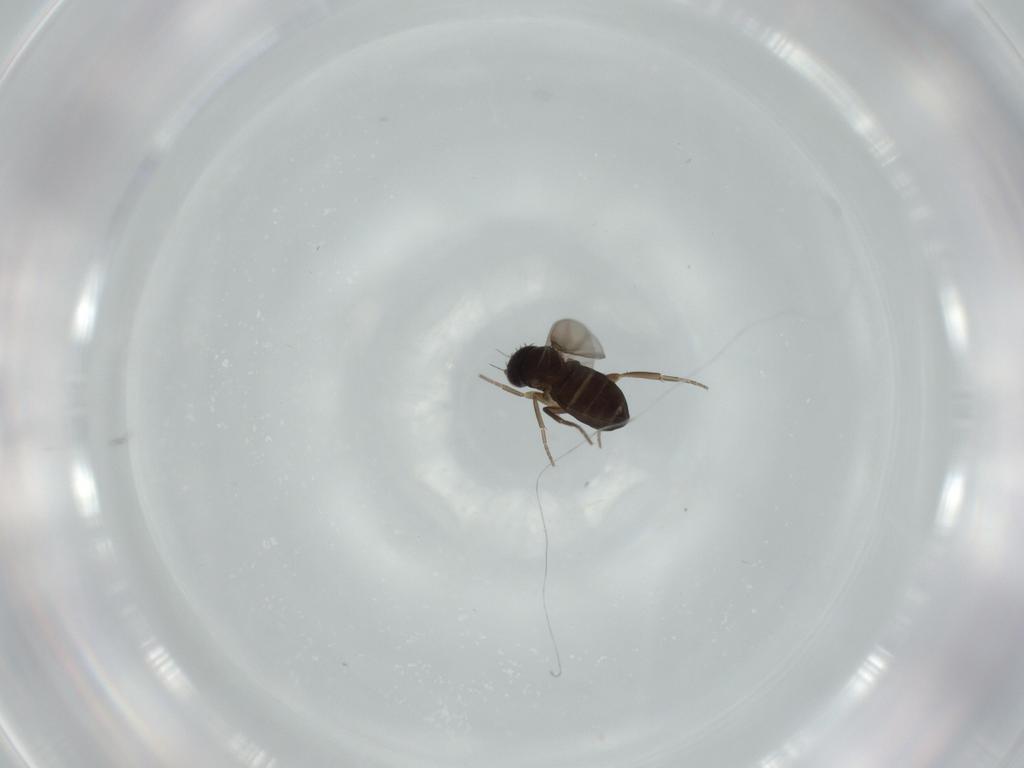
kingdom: Animalia
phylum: Arthropoda
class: Insecta
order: Diptera
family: Phoridae
